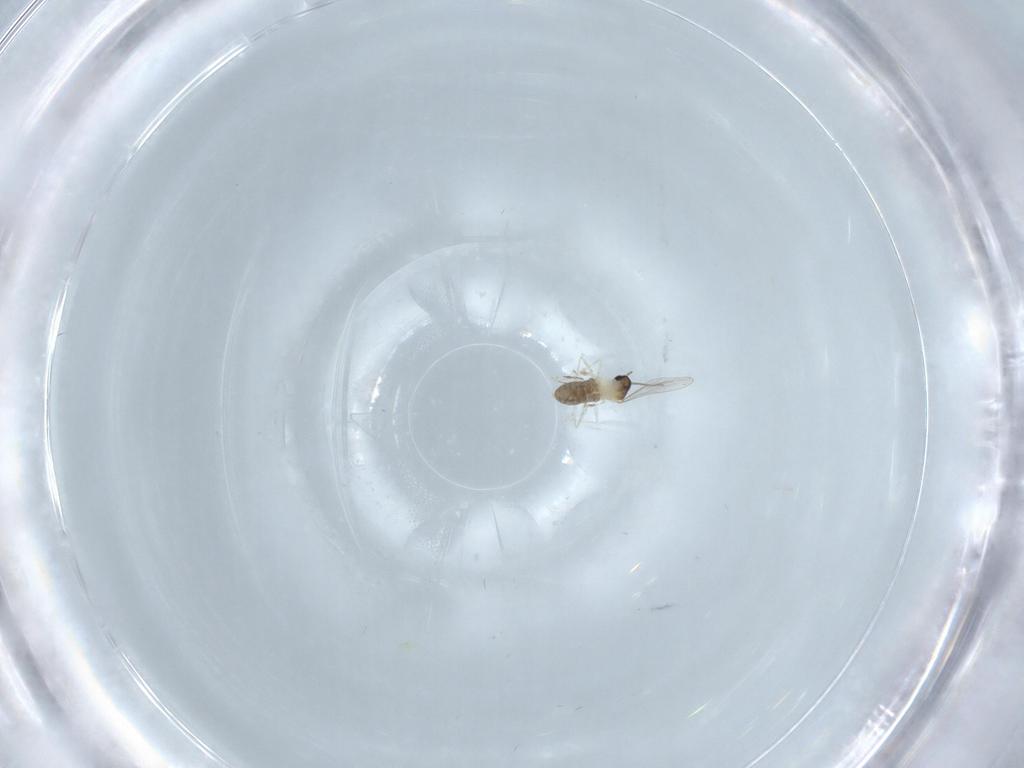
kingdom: Animalia
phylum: Arthropoda
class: Insecta
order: Diptera
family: Cecidomyiidae
